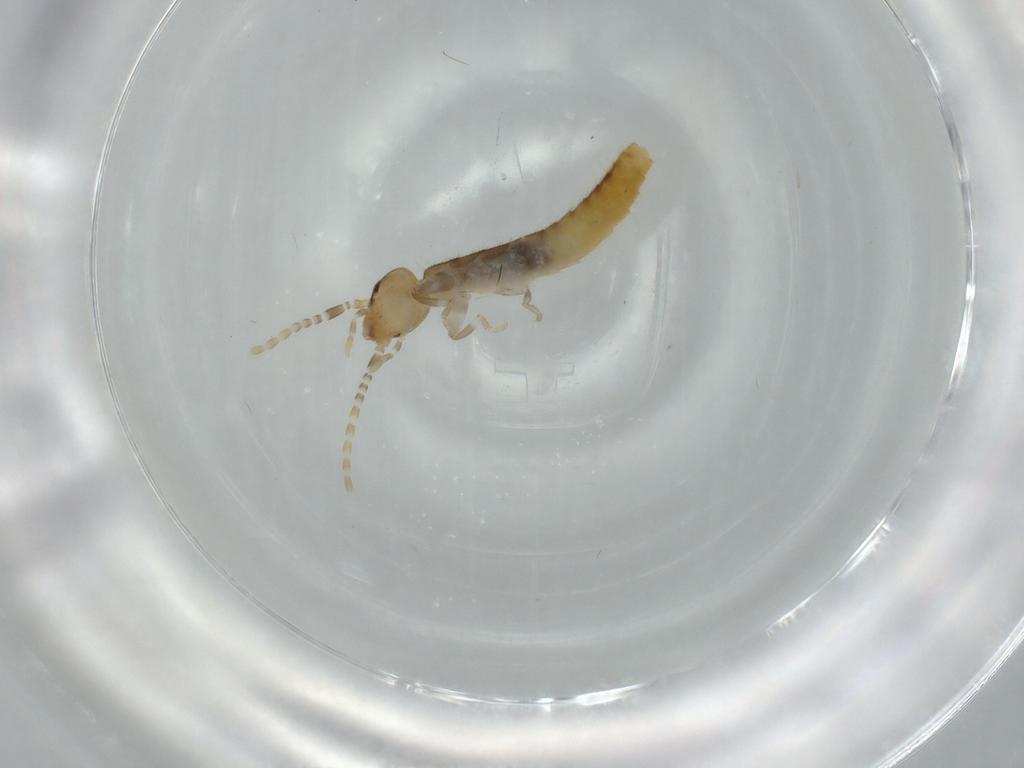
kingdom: Animalia
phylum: Arthropoda
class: Insecta
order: Dermaptera
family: Forficulidae
